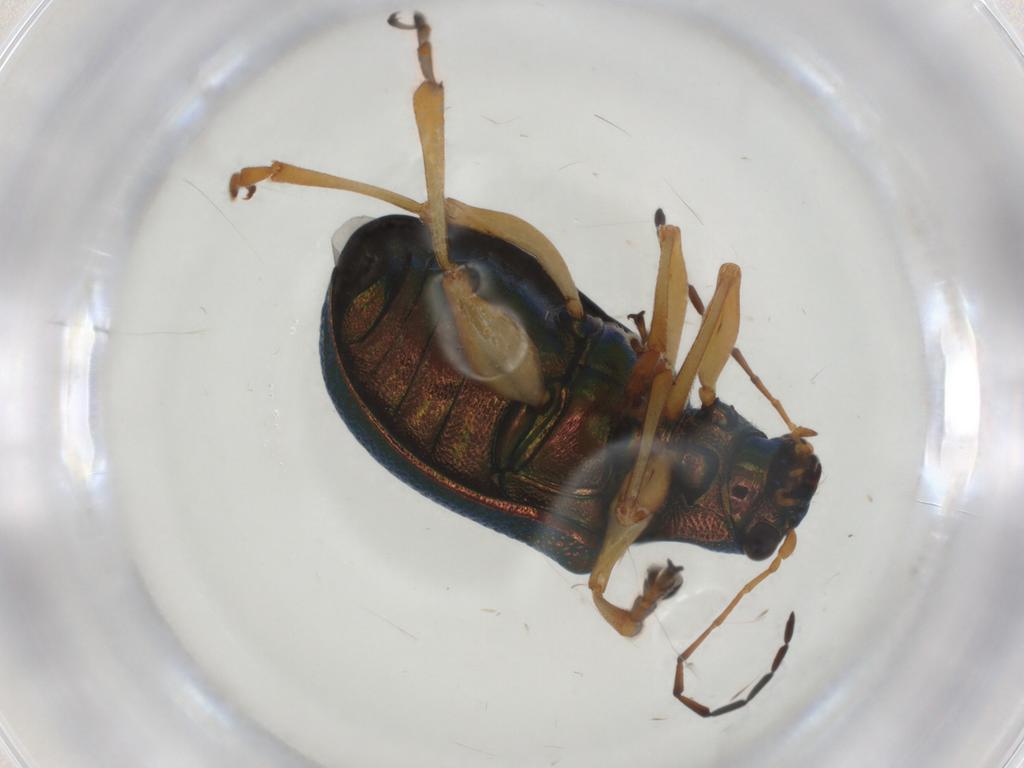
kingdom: Animalia
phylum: Arthropoda
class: Insecta
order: Coleoptera
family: Chrysomelidae
